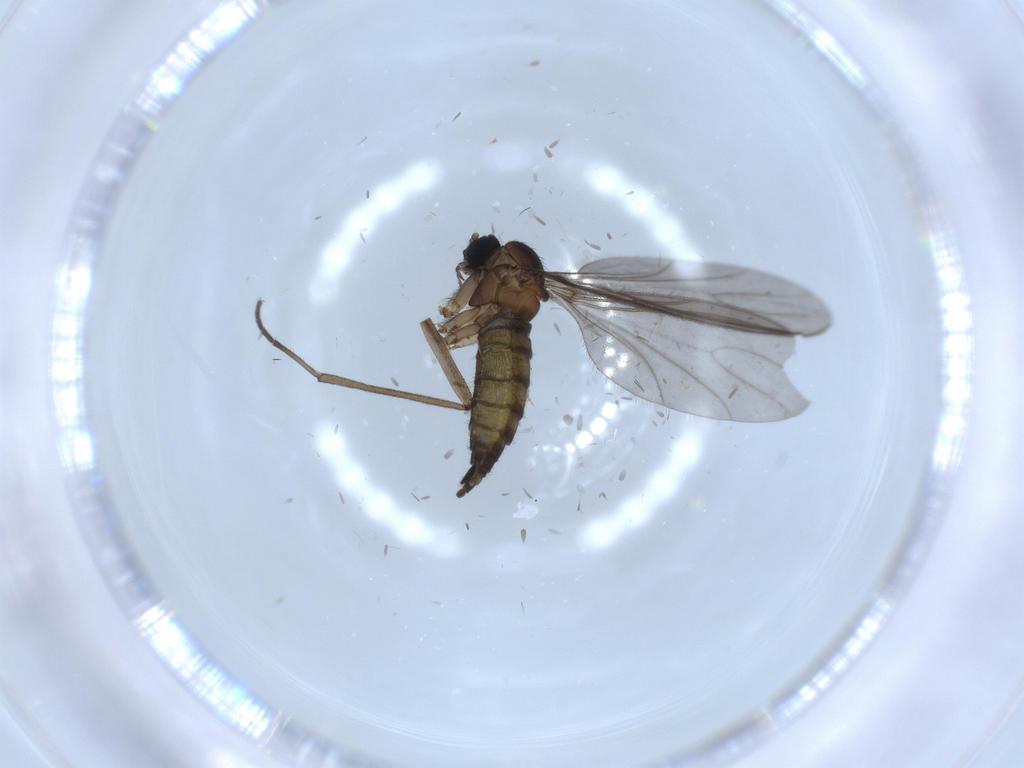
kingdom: Animalia
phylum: Arthropoda
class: Insecta
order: Diptera
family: Sciaridae
